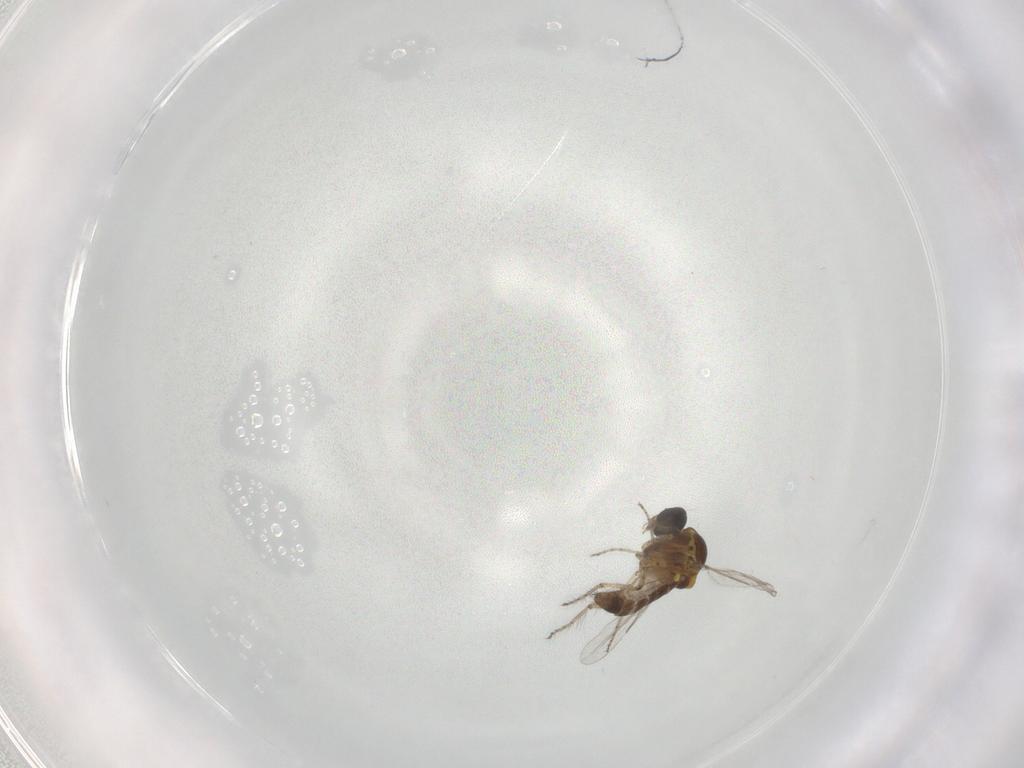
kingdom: Animalia
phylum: Arthropoda
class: Insecta
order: Diptera
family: Ceratopogonidae
